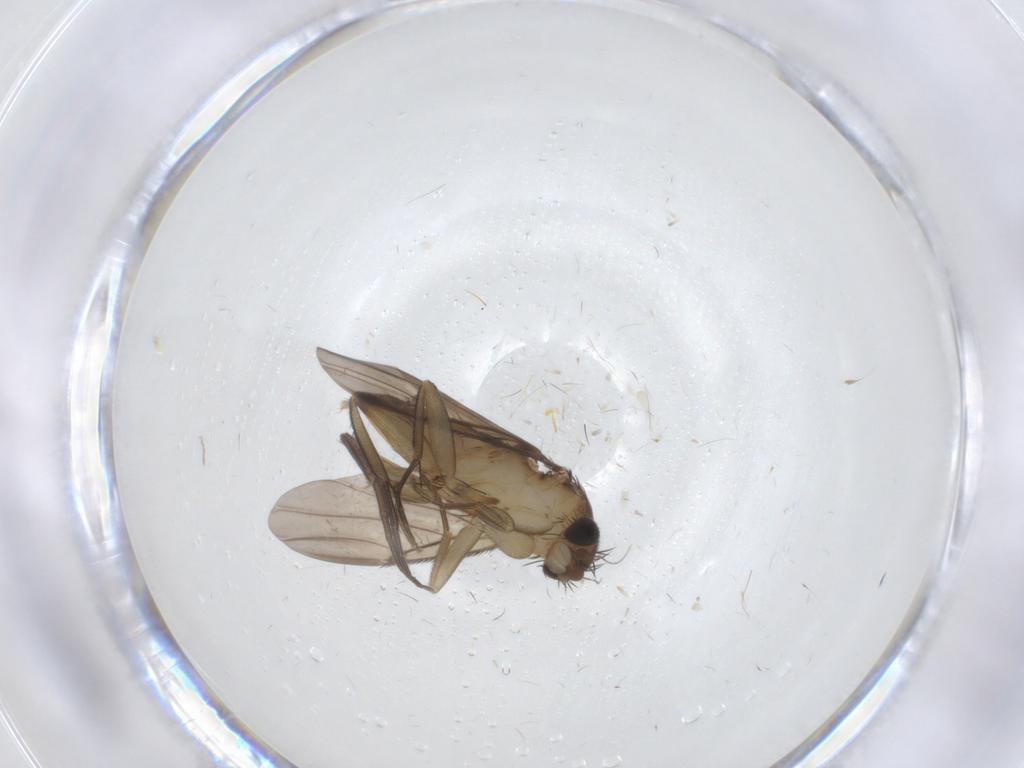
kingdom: Animalia
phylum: Arthropoda
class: Insecta
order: Diptera
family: Phoridae
